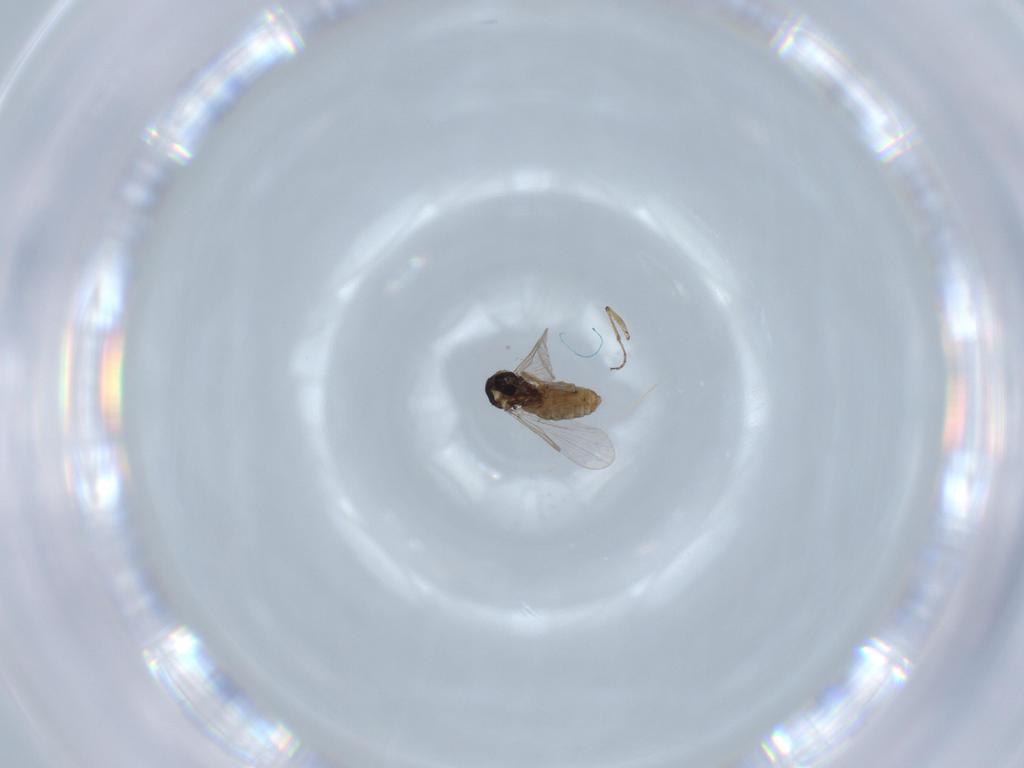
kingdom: Animalia
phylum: Arthropoda
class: Insecta
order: Diptera
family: Ceratopogonidae
